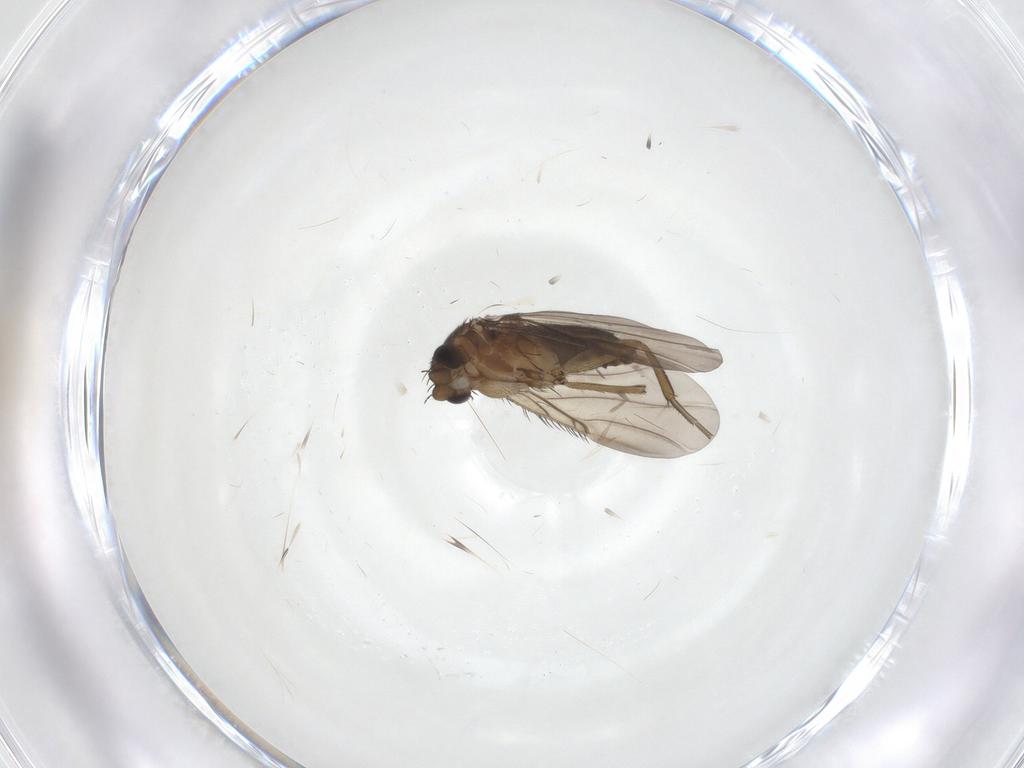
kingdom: Animalia
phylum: Arthropoda
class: Insecta
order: Diptera
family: Phoridae
